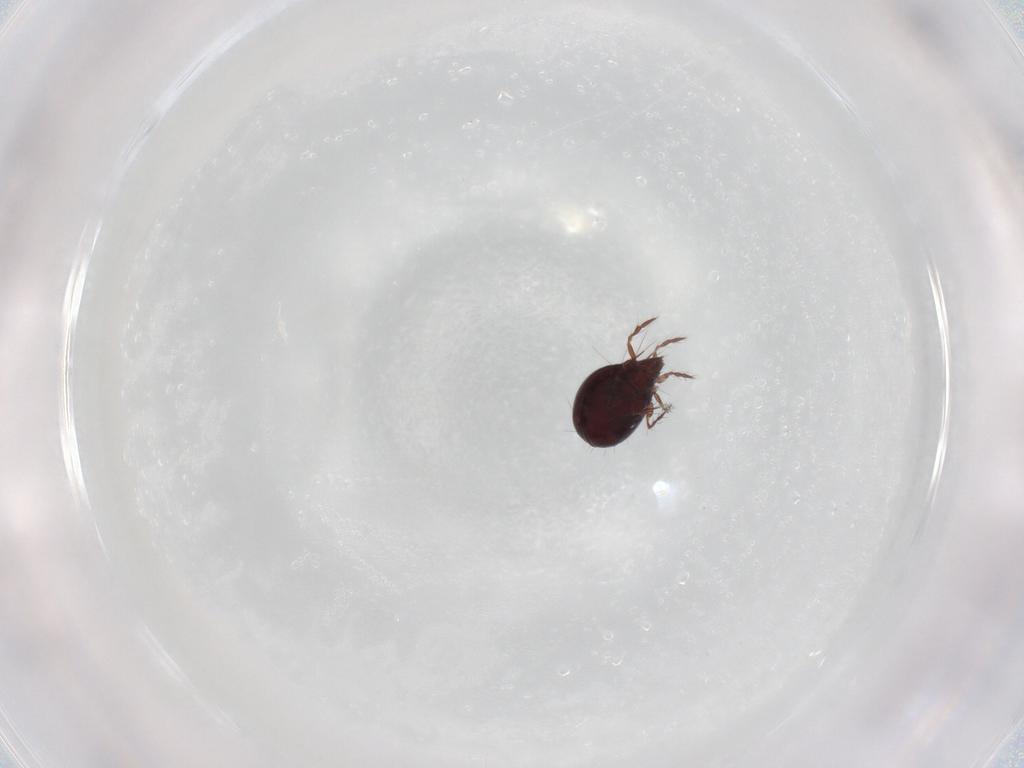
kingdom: Animalia
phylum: Arthropoda
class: Arachnida
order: Sarcoptiformes
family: Ceratoppiidae
